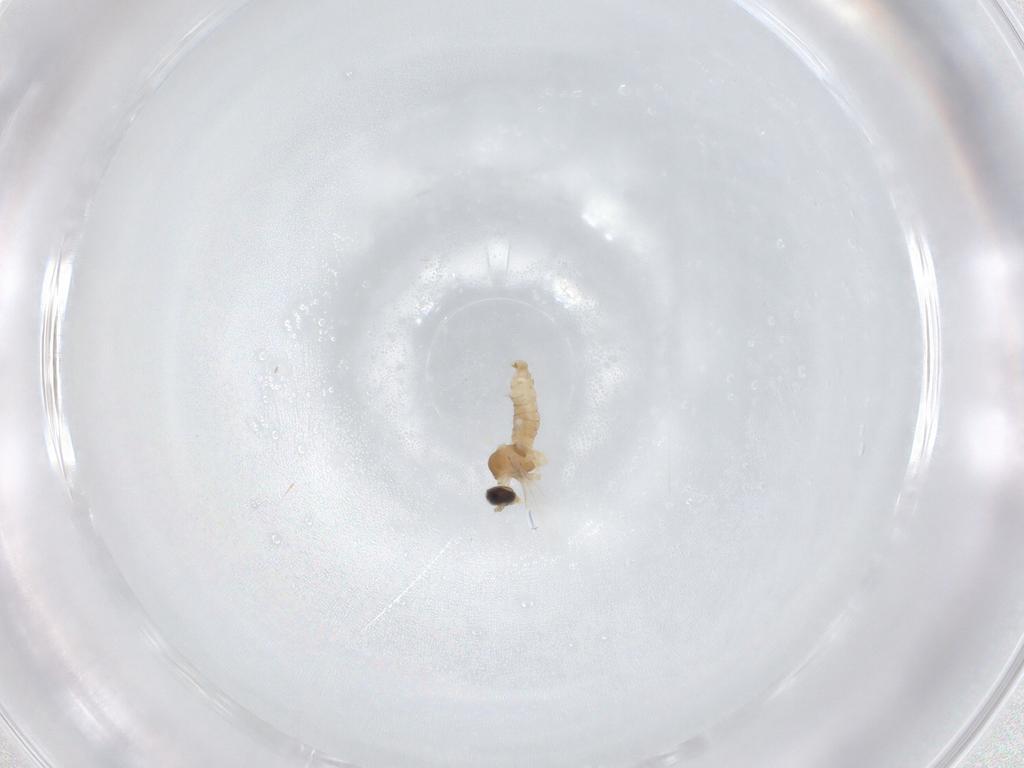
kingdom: Animalia
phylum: Arthropoda
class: Insecta
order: Diptera
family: Cecidomyiidae
